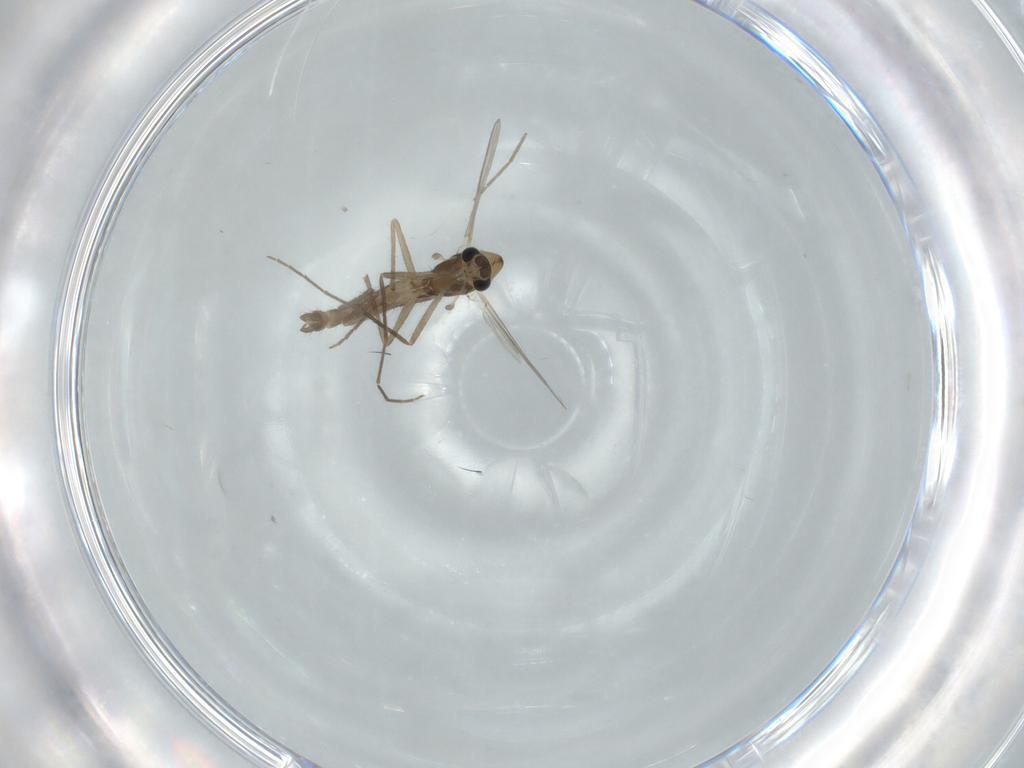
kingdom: Animalia
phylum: Arthropoda
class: Insecta
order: Diptera
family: Chironomidae
